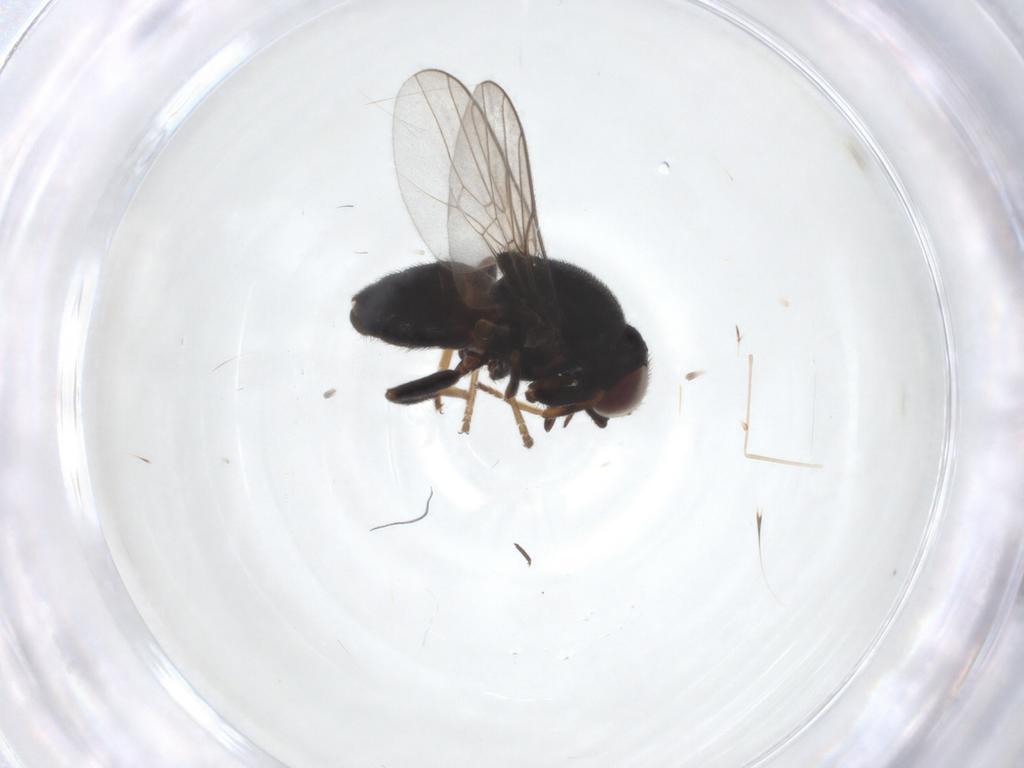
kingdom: Animalia
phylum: Arthropoda
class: Insecta
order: Diptera
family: Chloropidae
